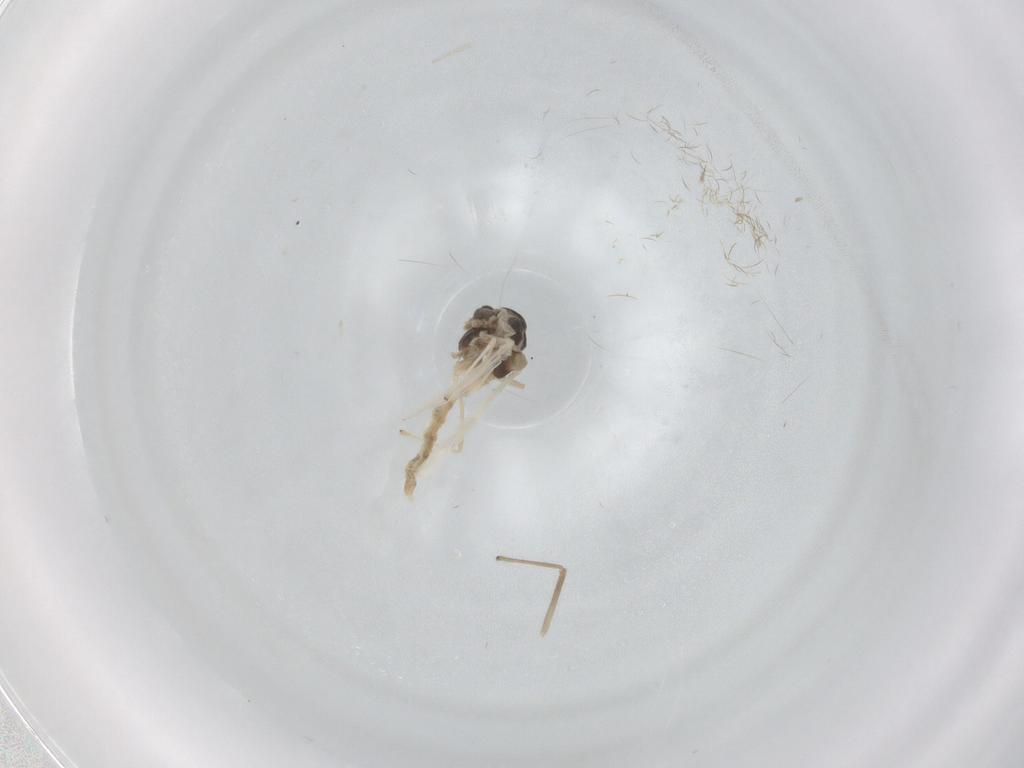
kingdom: Animalia
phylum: Arthropoda
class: Insecta
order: Diptera
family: Chironomidae
